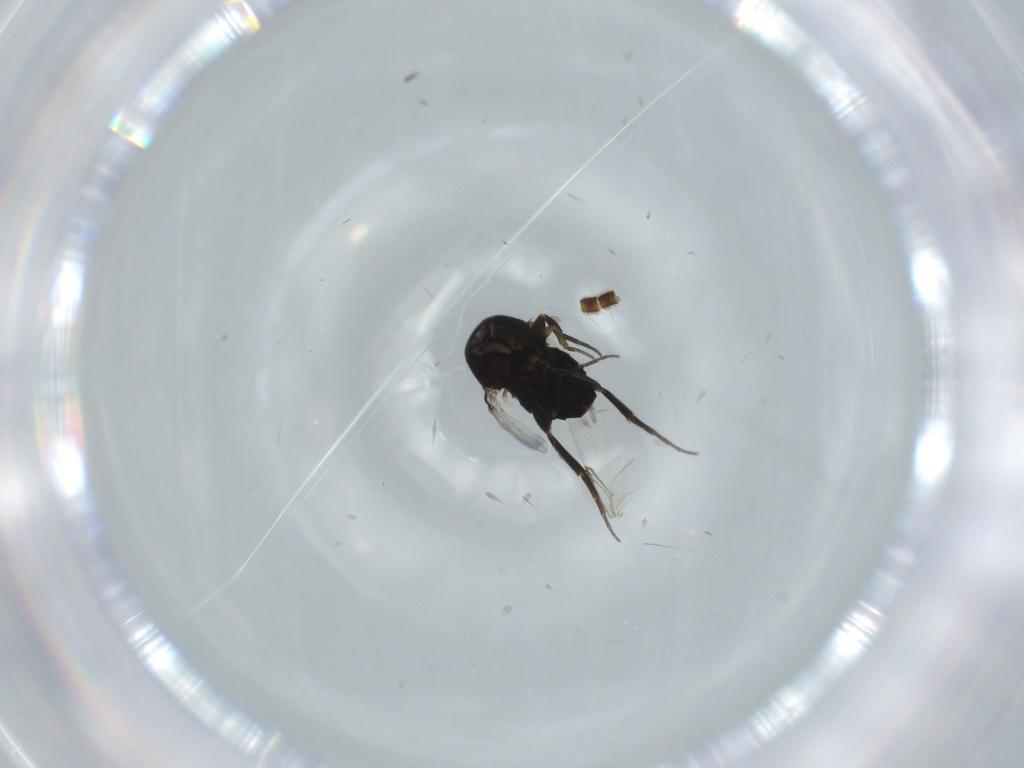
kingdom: Animalia
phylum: Arthropoda
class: Insecta
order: Diptera
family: Phoridae
